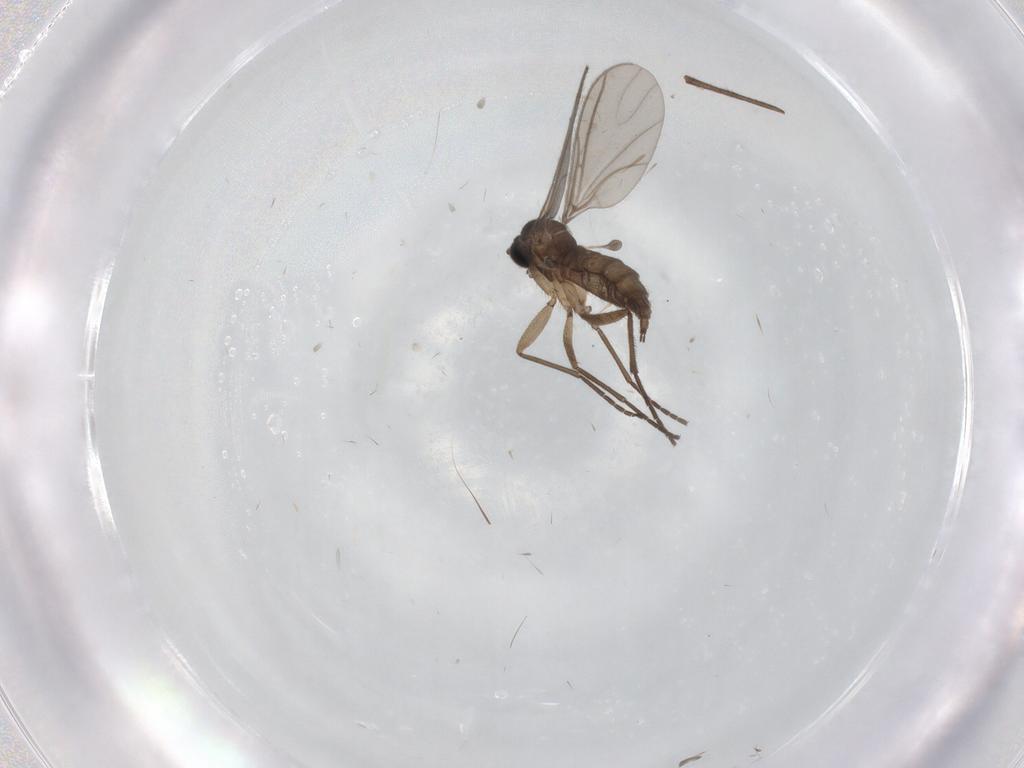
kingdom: Animalia
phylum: Arthropoda
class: Insecta
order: Diptera
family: Sciaridae
